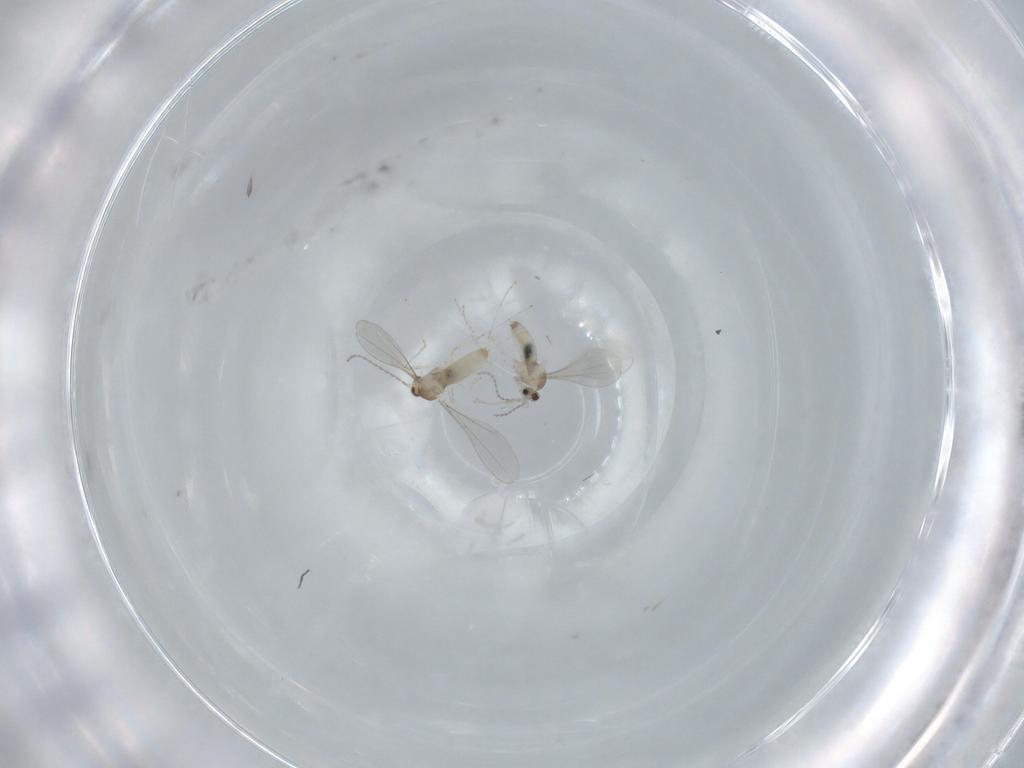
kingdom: Animalia
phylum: Arthropoda
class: Insecta
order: Diptera
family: Cecidomyiidae
